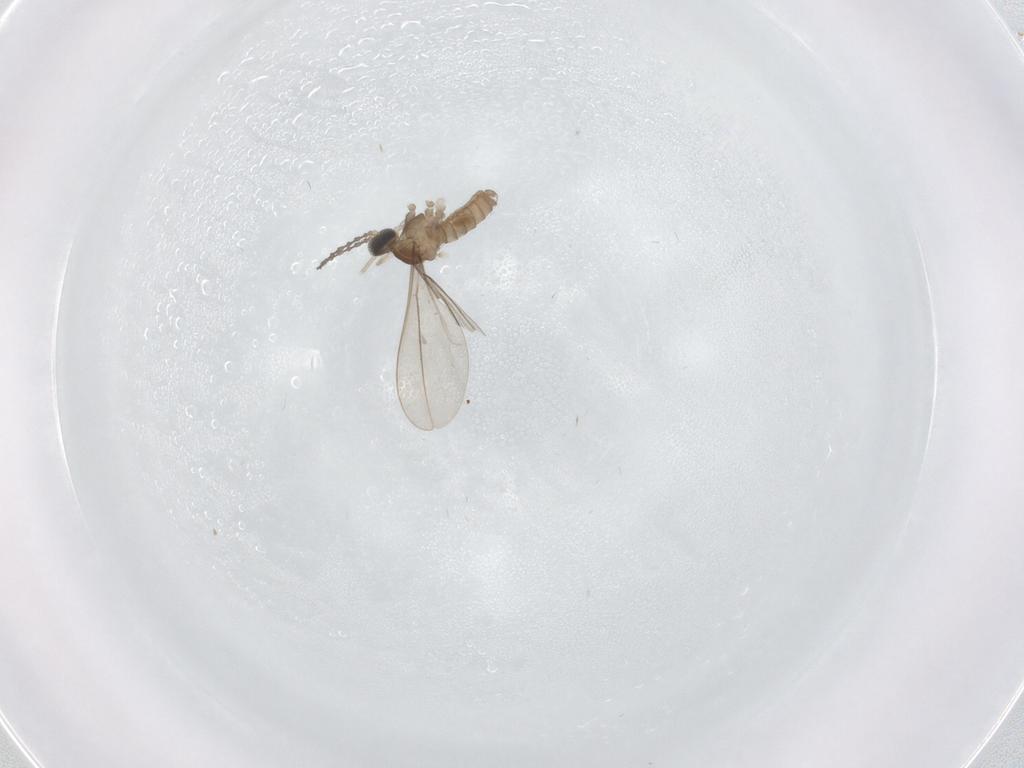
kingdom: Animalia
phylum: Arthropoda
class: Insecta
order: Diptera
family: Cecidomyiidae
